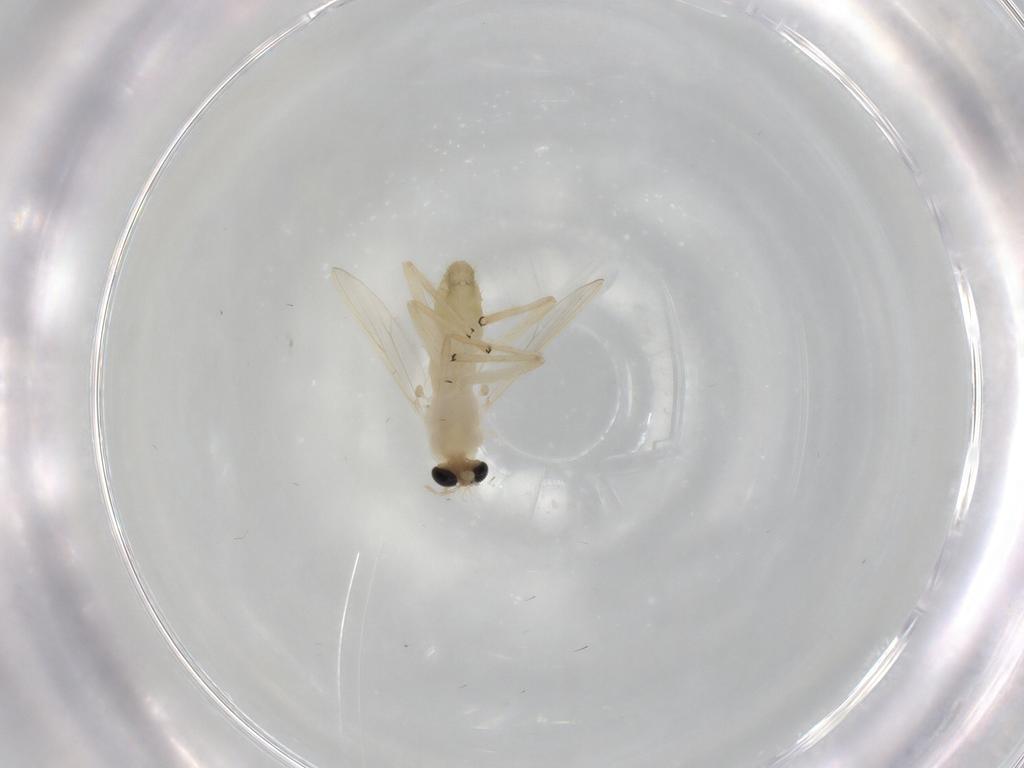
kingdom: Animalia
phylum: Arthropoda
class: Insecta
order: Diptera
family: Chironomidae
